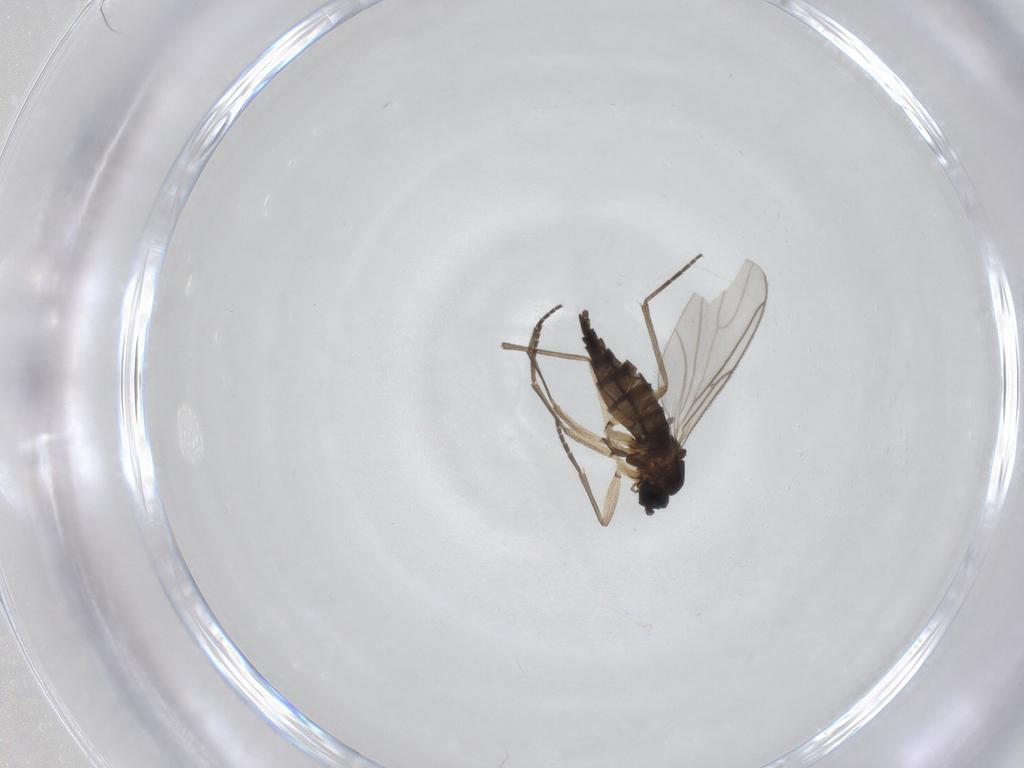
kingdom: Animalia
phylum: Arthropoda
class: Insecta
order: Diptera
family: Sciaridae
